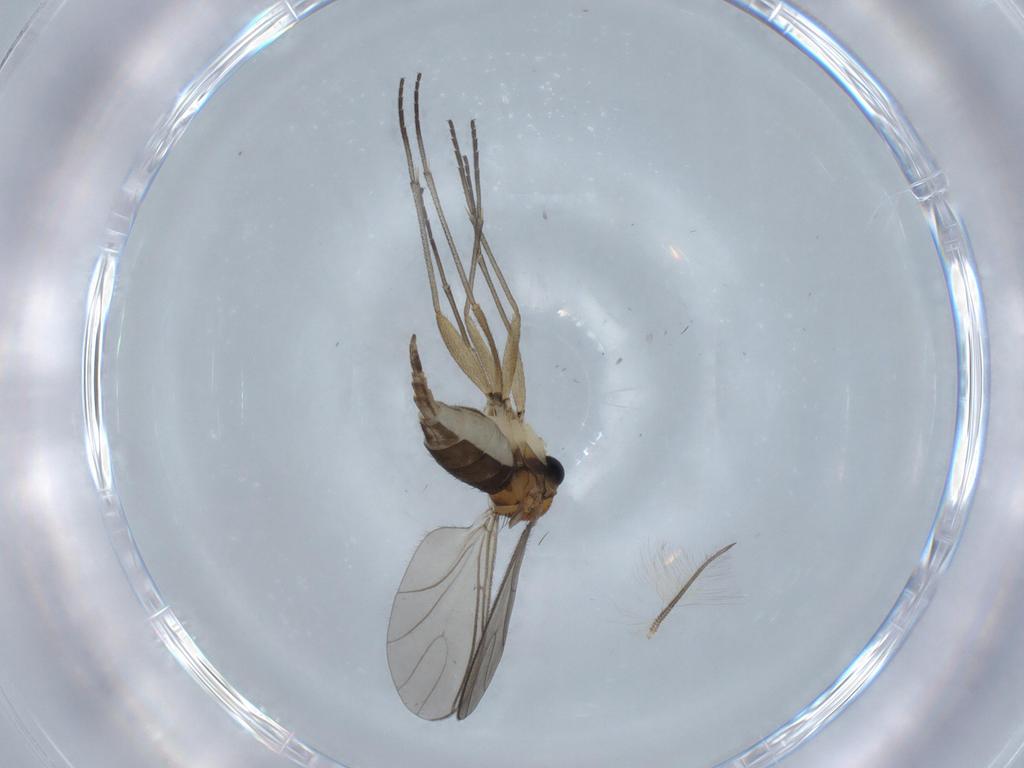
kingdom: Animalia
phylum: Arthropoda
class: Insecta
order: Diptera
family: Sciaridae
